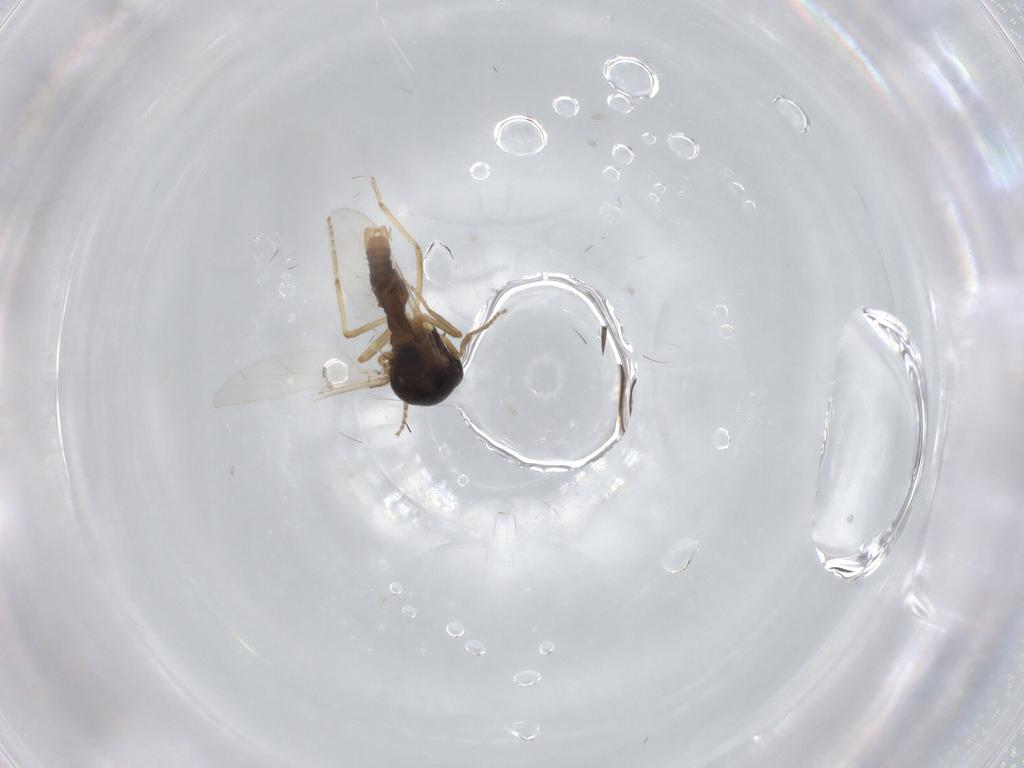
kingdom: Animalia
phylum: Arthropoda
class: Insecta
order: Diptera
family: Ceratopogonidae
